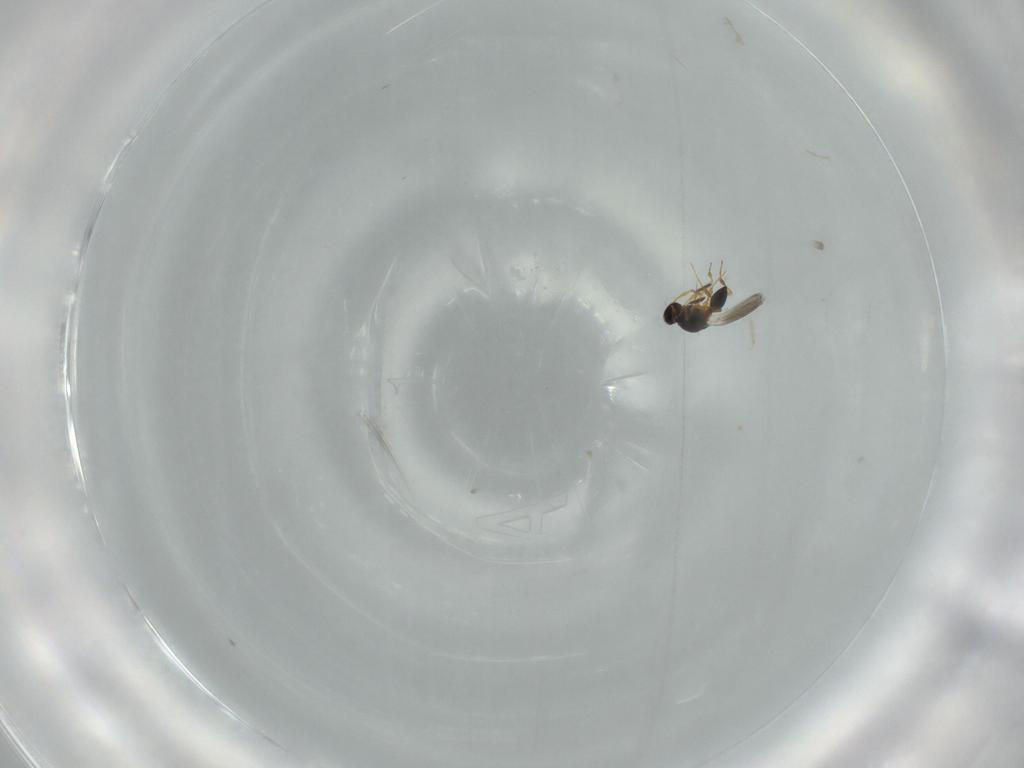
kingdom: Animalia
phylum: Arthropoda
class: Insecta
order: Hymenoptera
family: Platygastridae
